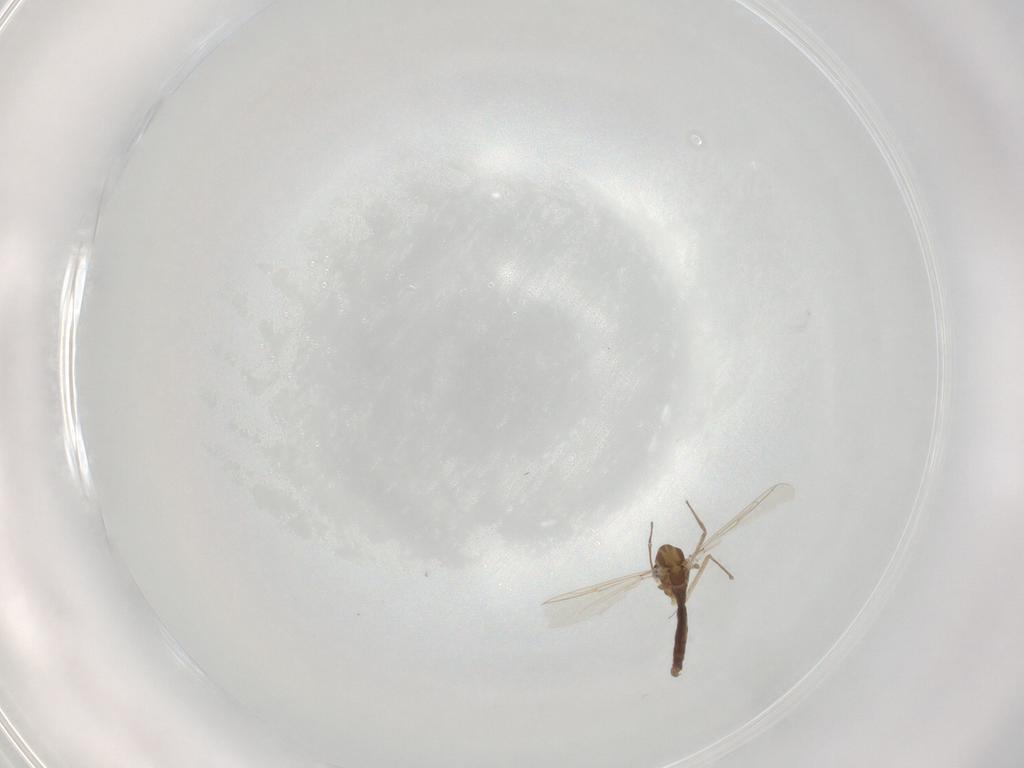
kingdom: Animalia
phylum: Arthropoda
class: Insecta
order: Diptera
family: Chironomidae
